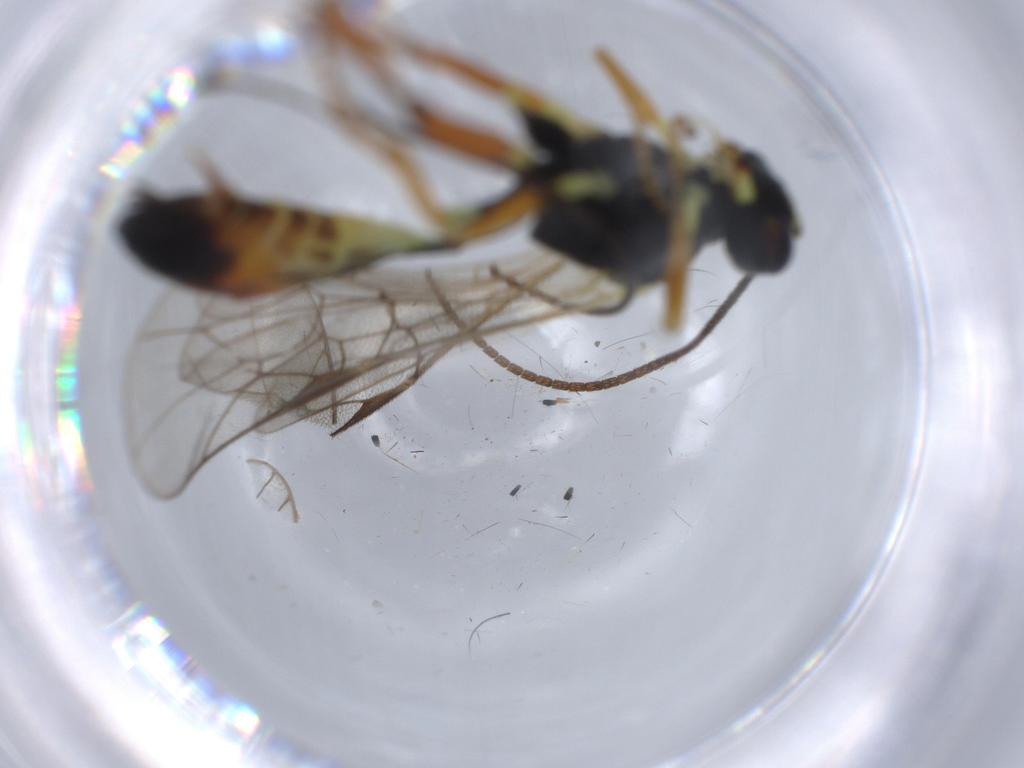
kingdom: Animalia
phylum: Arthropoda
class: Insecta
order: Hymenoptera
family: Ichneumonidae
